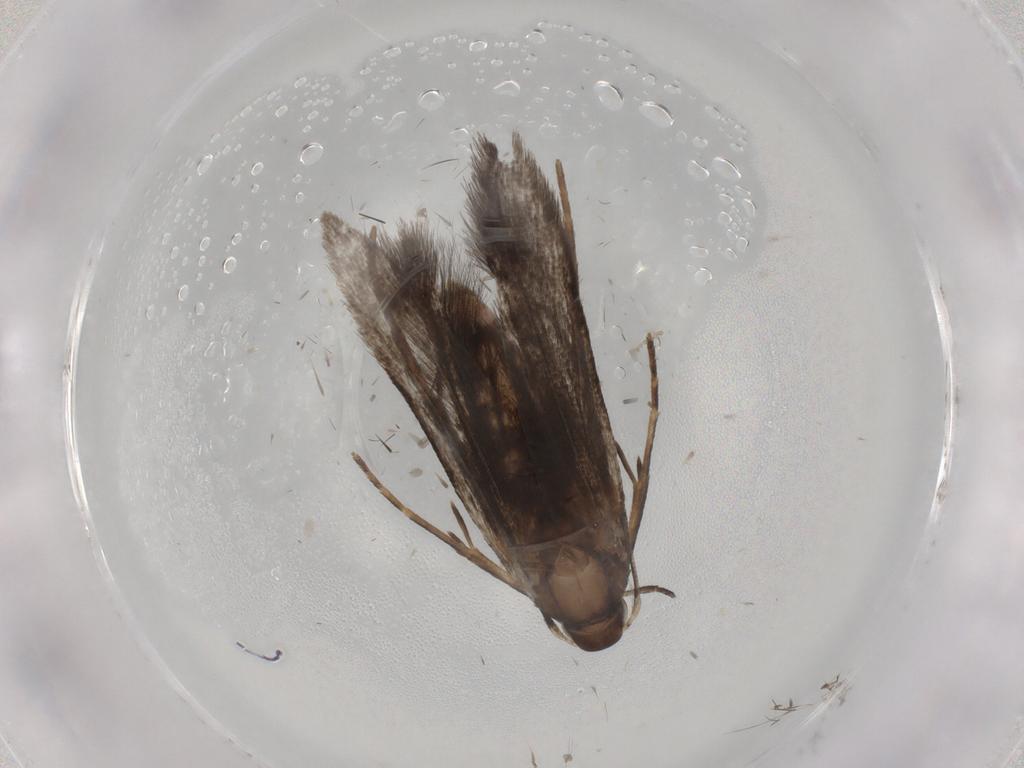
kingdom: Animalia
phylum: Arthropoda
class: Insecta
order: Lepidoptera
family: Gelechiidae
